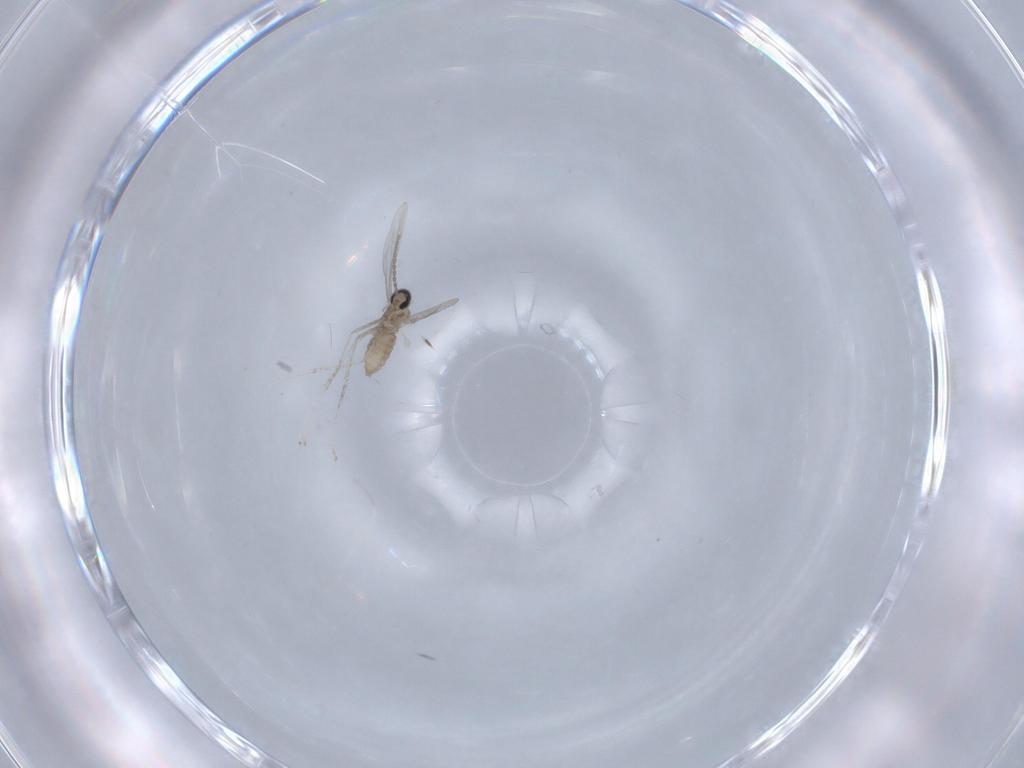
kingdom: Animalia
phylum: Arthropoda
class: Insecta
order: Diptera
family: Cecidomyiidae
